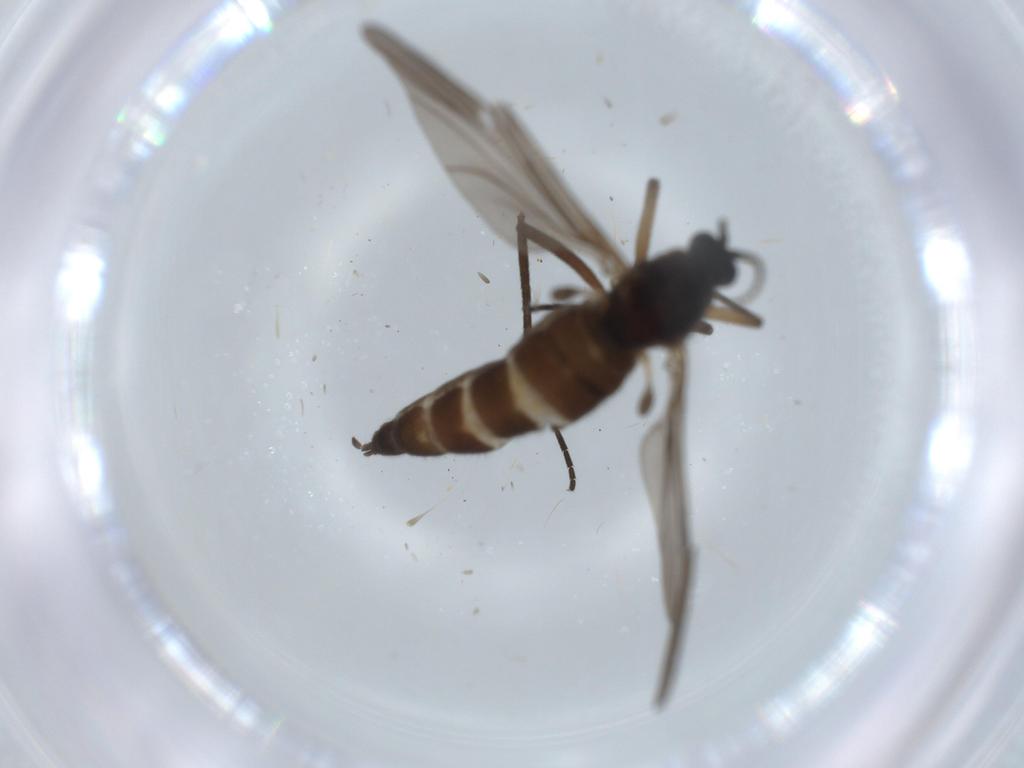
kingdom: Animalia
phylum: Arthropoda
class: Insecta
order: Diptera
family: Sciaridae
